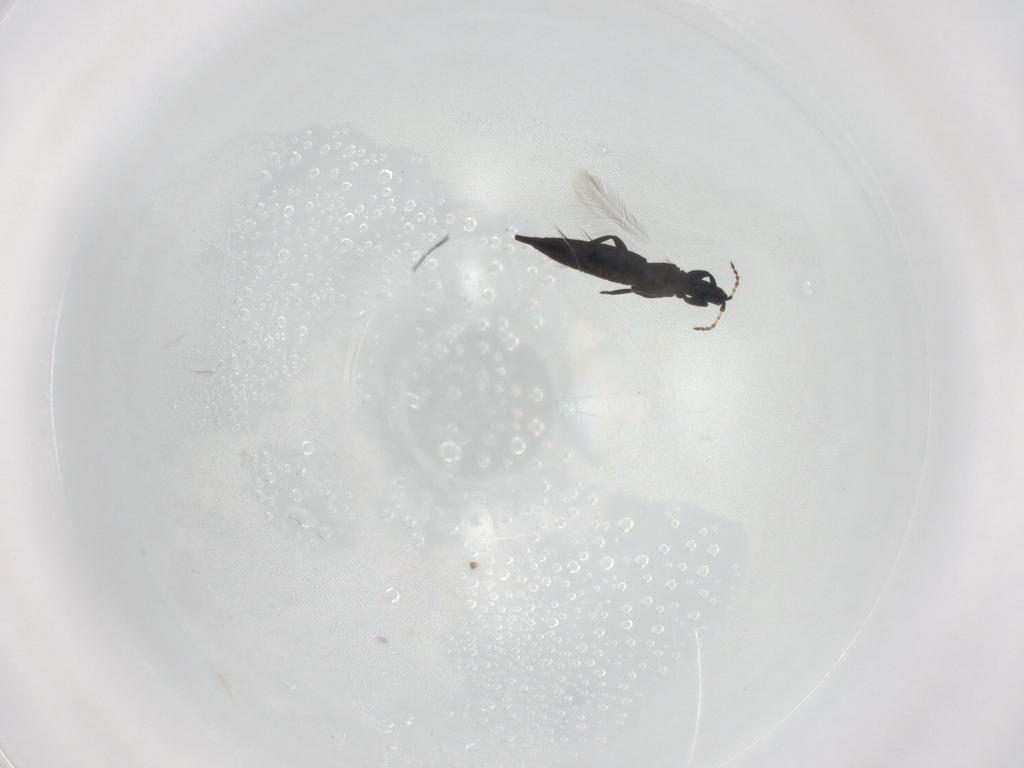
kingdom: Animalia
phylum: Arthropoda
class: Insecta
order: Thysanoptera
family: Phlaeothripidae
